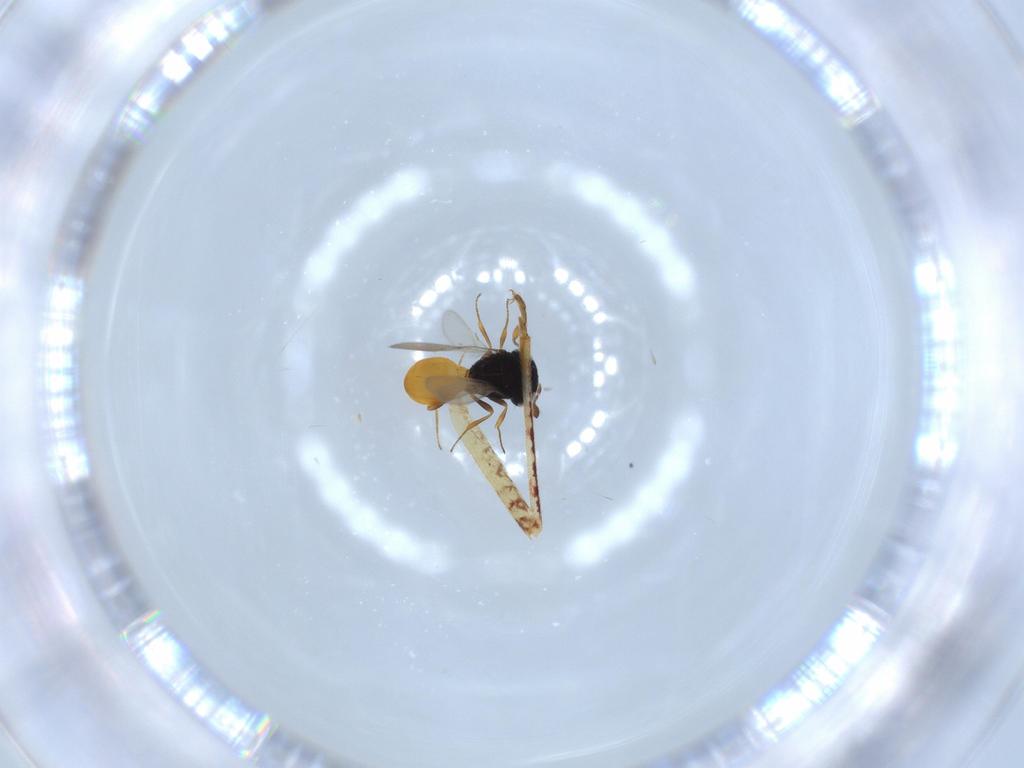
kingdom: Animalia
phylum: Arthropoda
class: Insecta
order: Hymenoptera
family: Scelionidae
